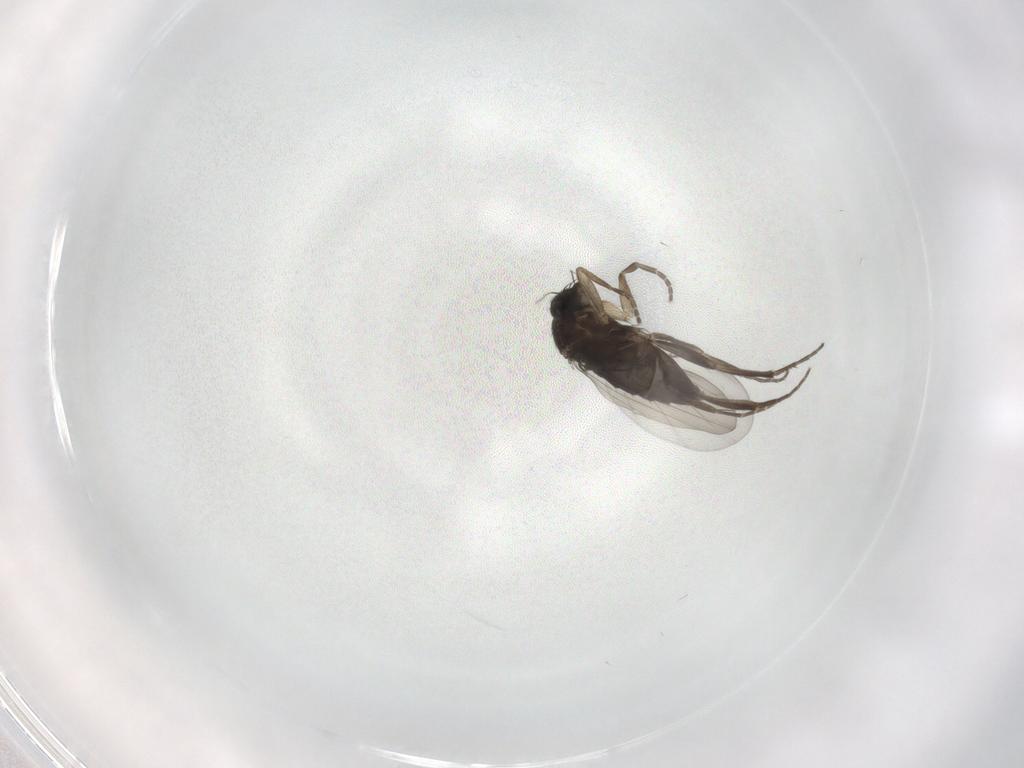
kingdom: Animalia
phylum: Arthropoda
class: Insecta
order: Diptera
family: Phoridae
